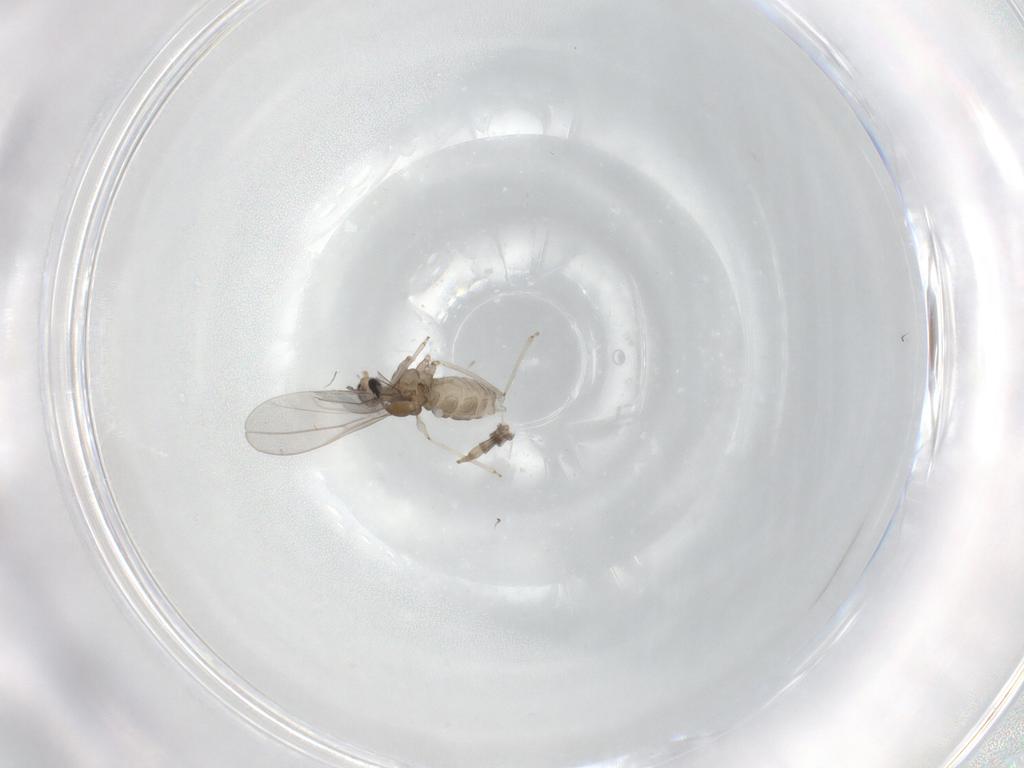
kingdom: Animalia
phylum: Arthropoda
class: Insecta
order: Diptera
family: Cecidomyiidae
